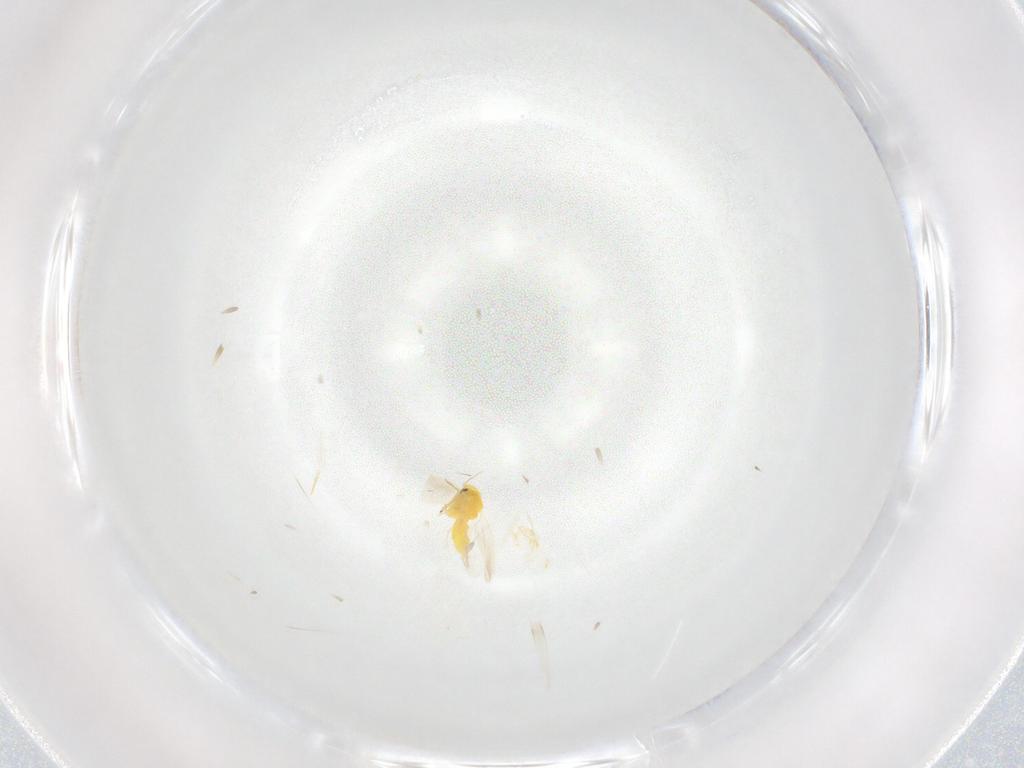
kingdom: Animalia
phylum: Arthropoda
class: Insecta
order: Hemiptera
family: Aleyrodidae
